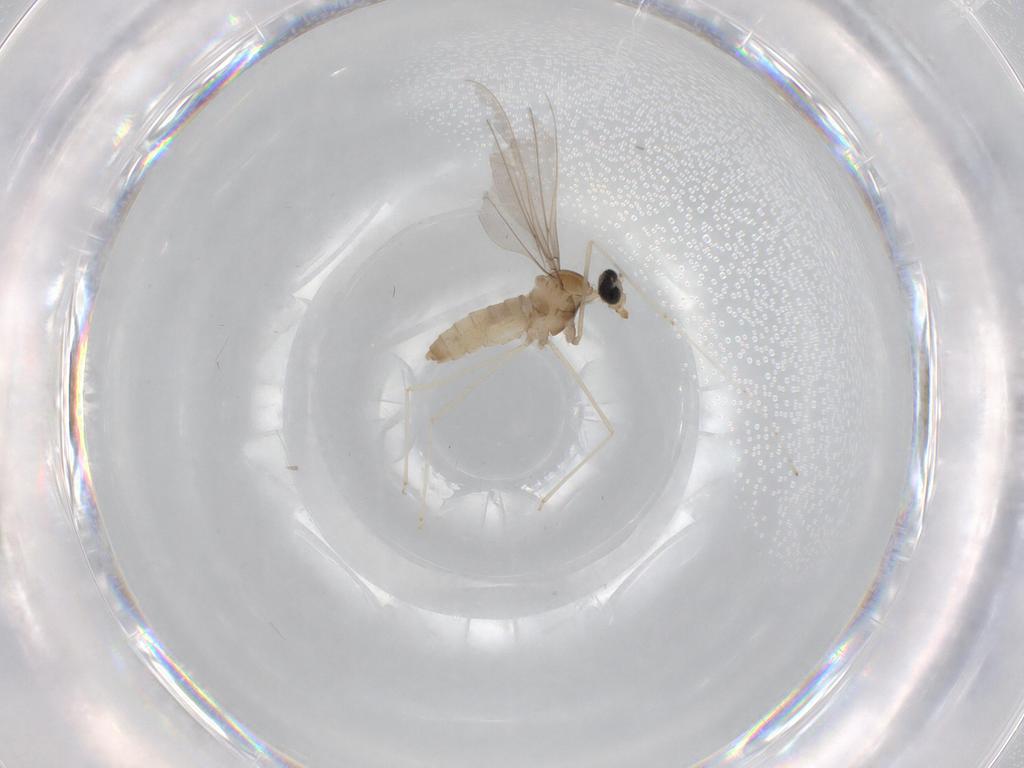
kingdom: Animalia
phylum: Arthropoda
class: Insecta
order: Diptera
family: Cecidomyiidae
